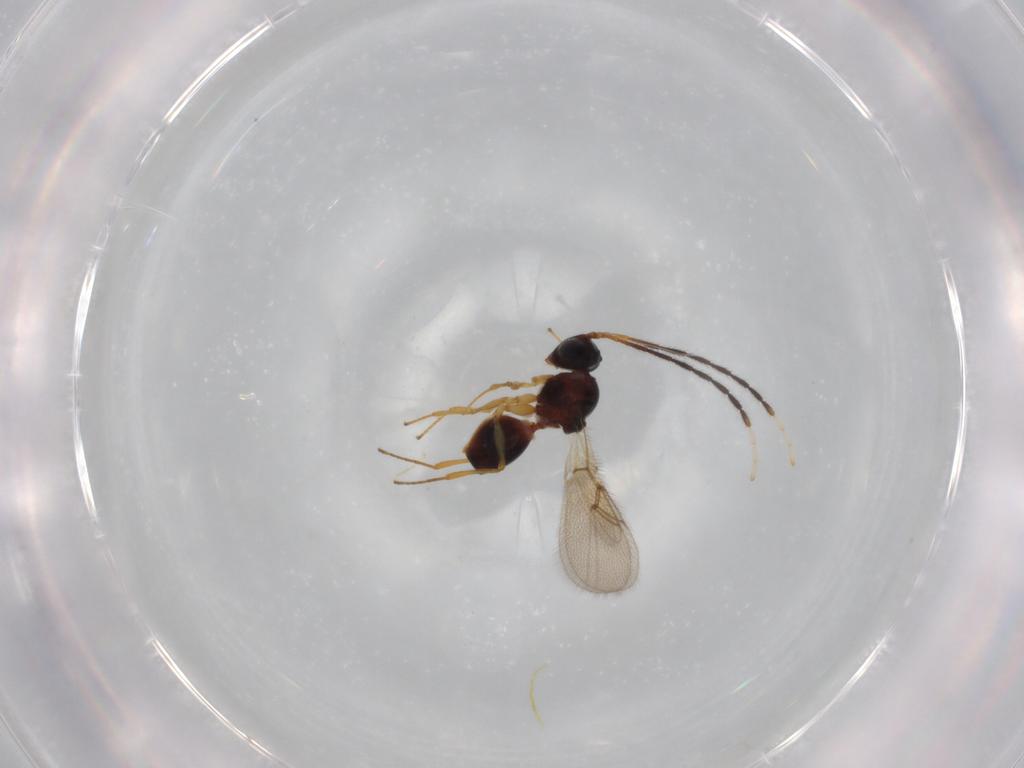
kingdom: Animalia
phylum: Arthropoda
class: Insecta
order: Hymenoptera
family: Figitidae
